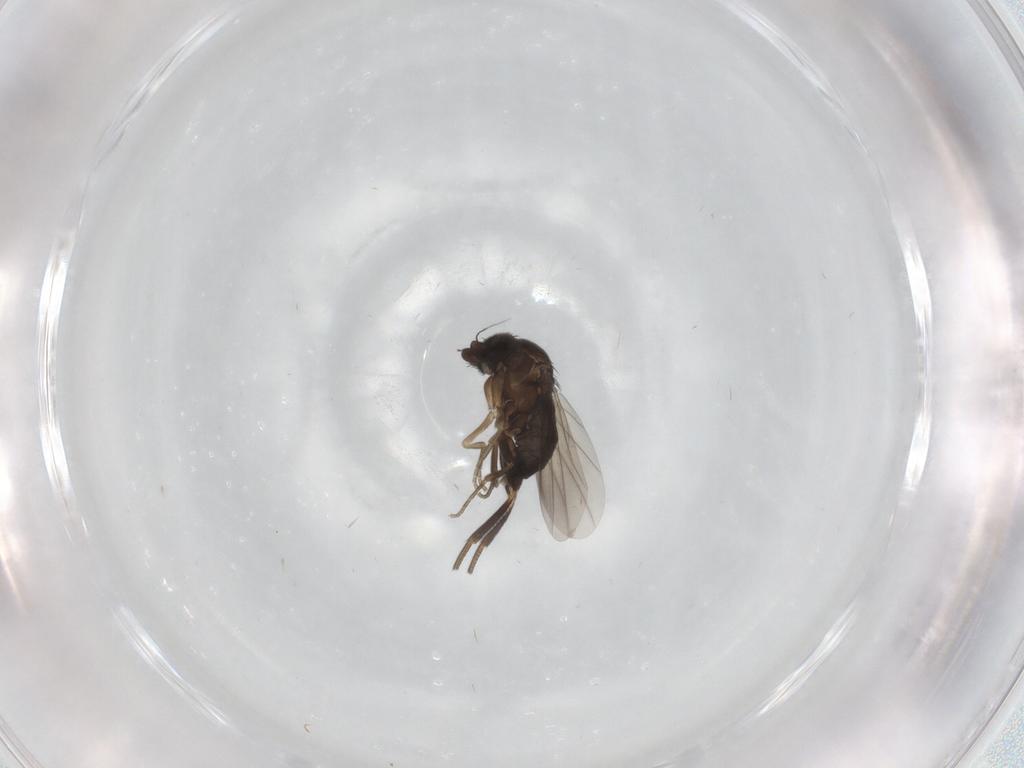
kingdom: Animalia
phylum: Arthropoda
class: Insecta
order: Diptera
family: Phoridae
